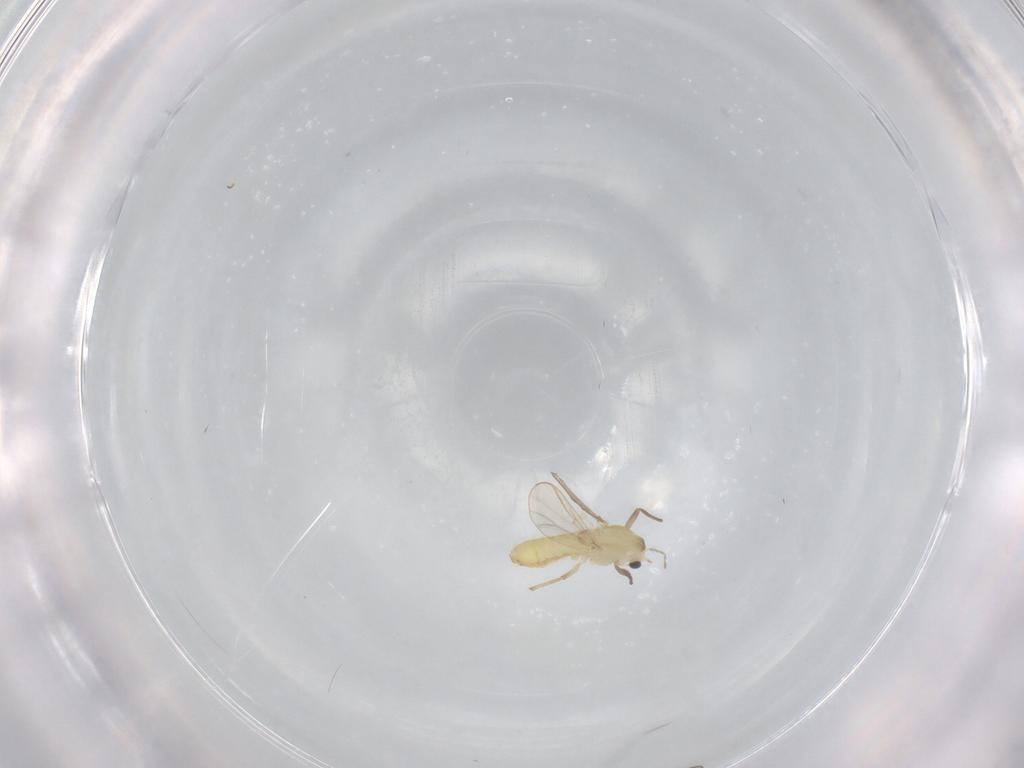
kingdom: Animalia
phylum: Arthropoda
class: Insecta
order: Diptera
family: Chironomidae
